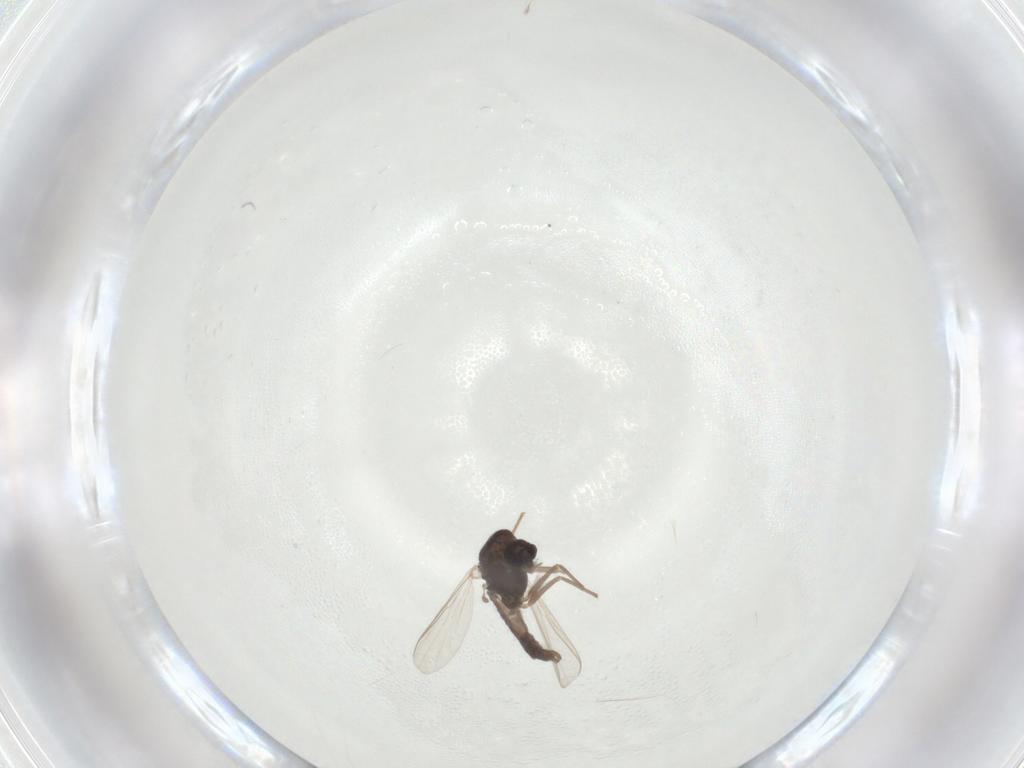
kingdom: Animalia
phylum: Arthropoda
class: Insecta
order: Diptera
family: Chironomidae
